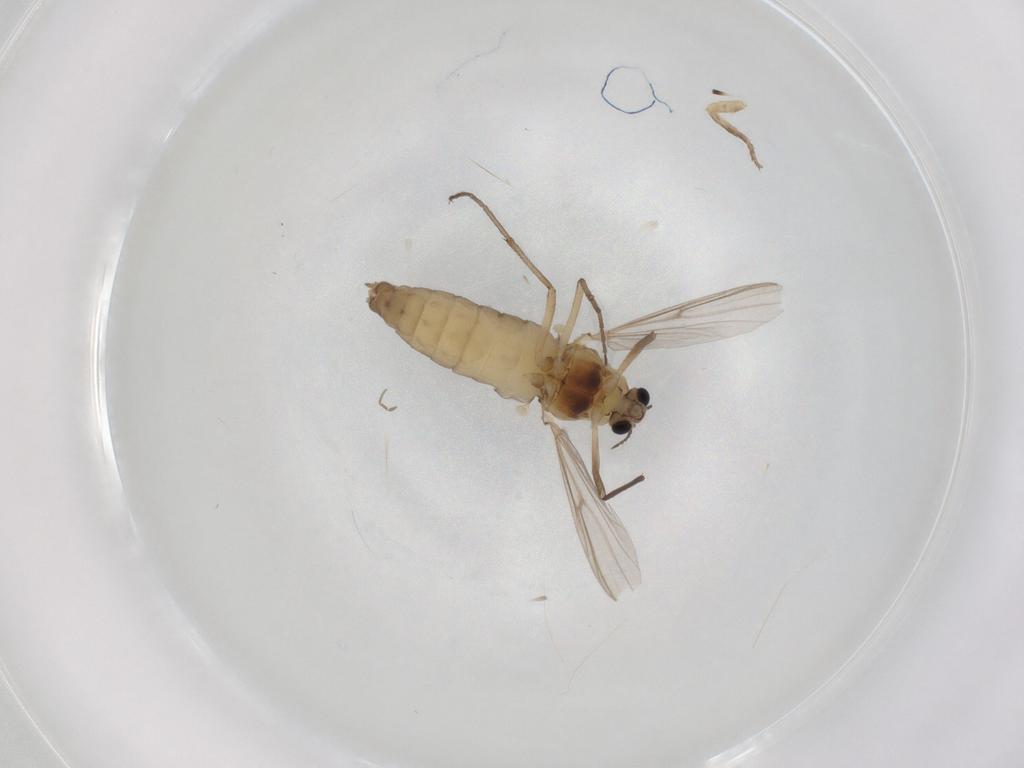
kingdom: Animalia
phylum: Arthropoda
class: Insecta
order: Diptera
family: Chironomidae
